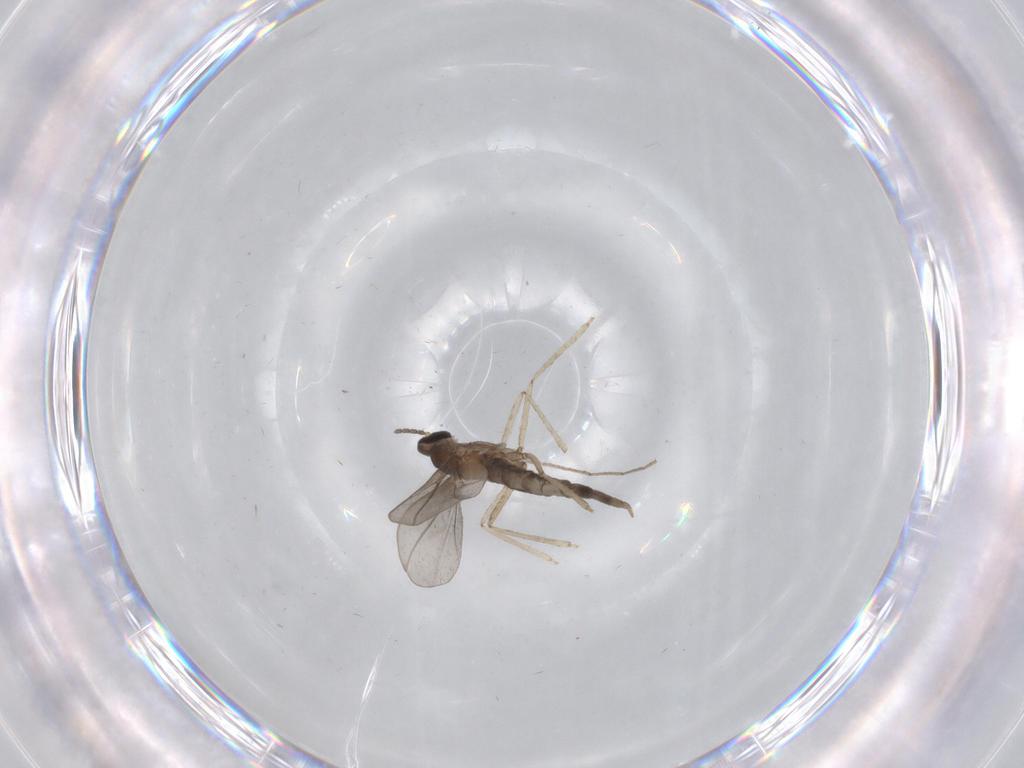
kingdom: Animalia
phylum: Arthropoda
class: Insecta
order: Diptera
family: Cecidomyiidae
